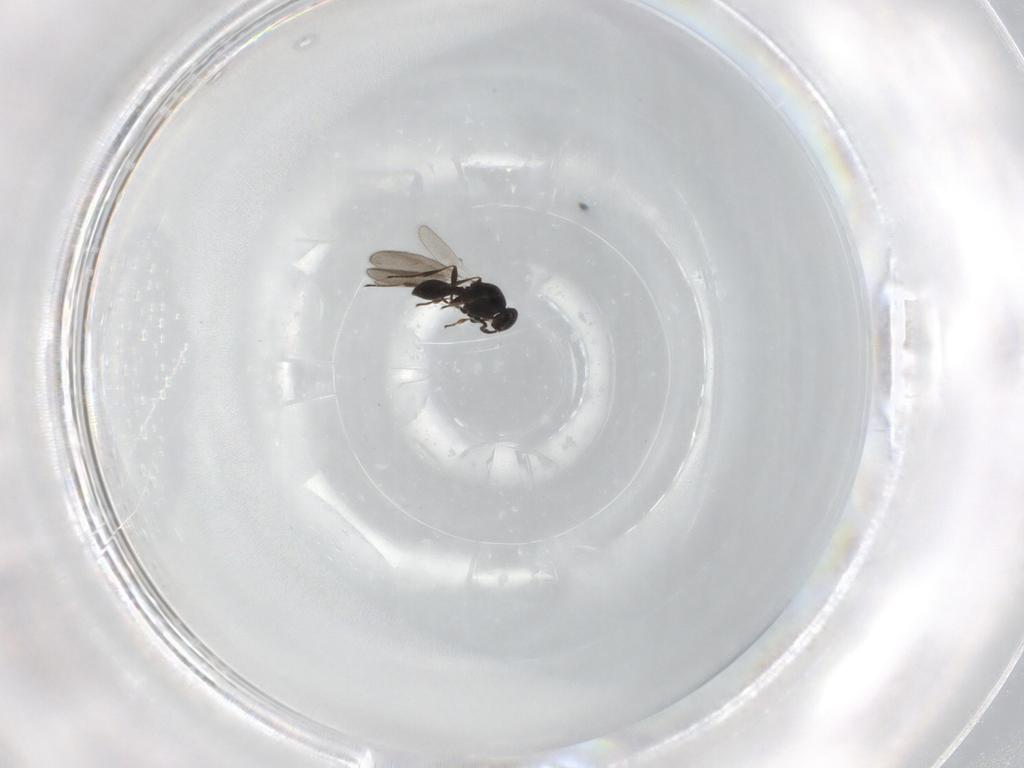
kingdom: Animalia
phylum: Arthropoda
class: Insecta
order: Hymenoptera
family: Platygastridae
